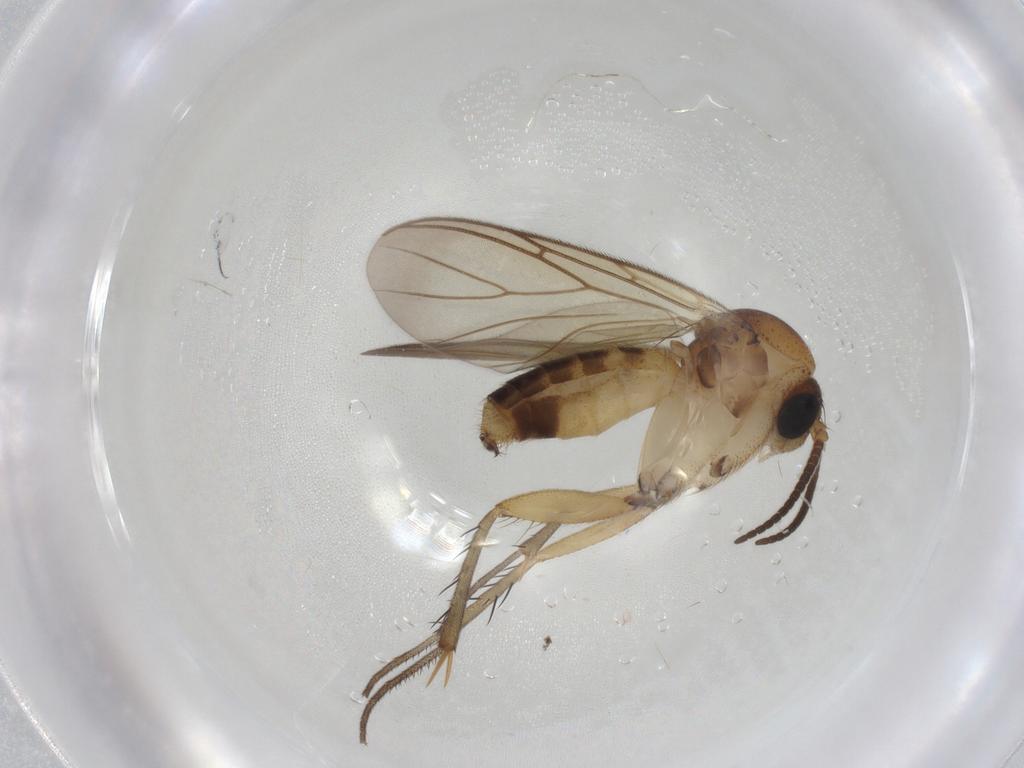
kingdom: Animalia
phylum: Arthropoda
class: Insecta
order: Diptera
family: Mycetophilidae
